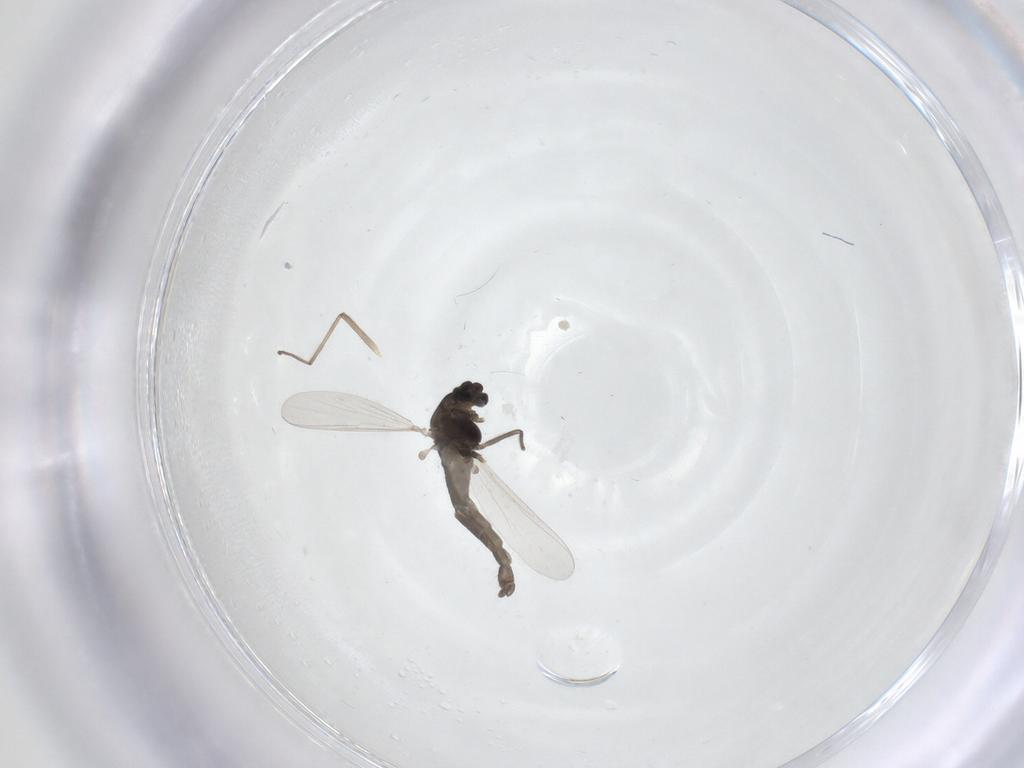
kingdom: Animalia
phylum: Arthropoda
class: Insecta
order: Diptera
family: Chironomidae
